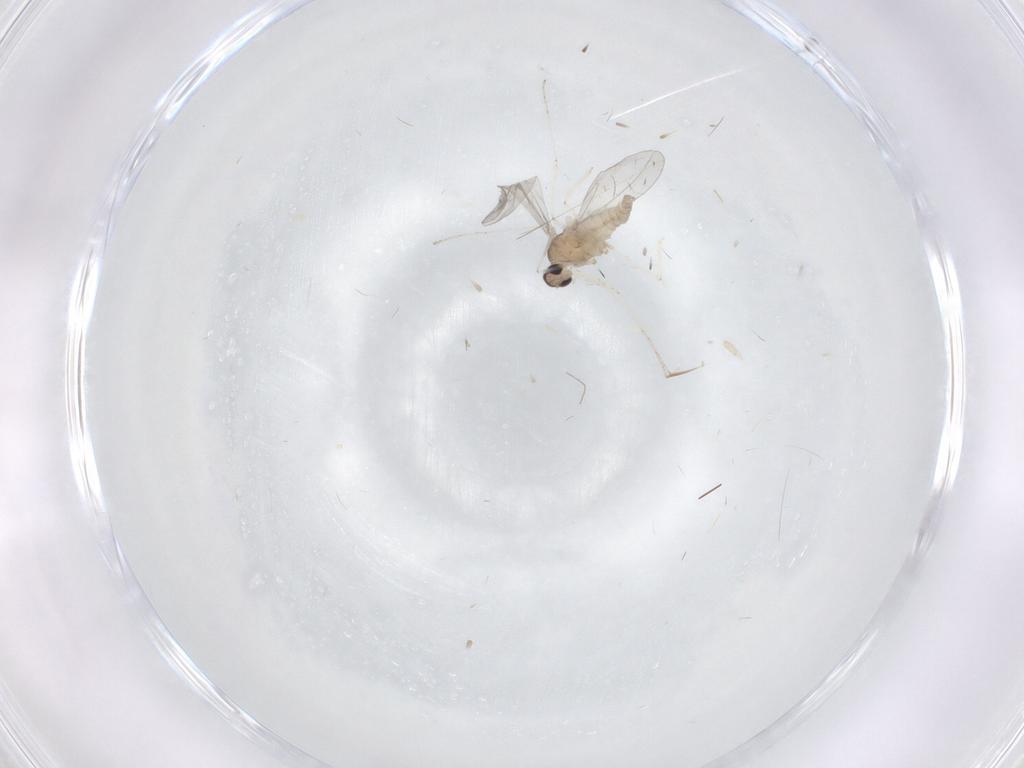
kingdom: Animalia
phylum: Arthropoda
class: Insecta
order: Diptera
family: Cecidomyiidae
